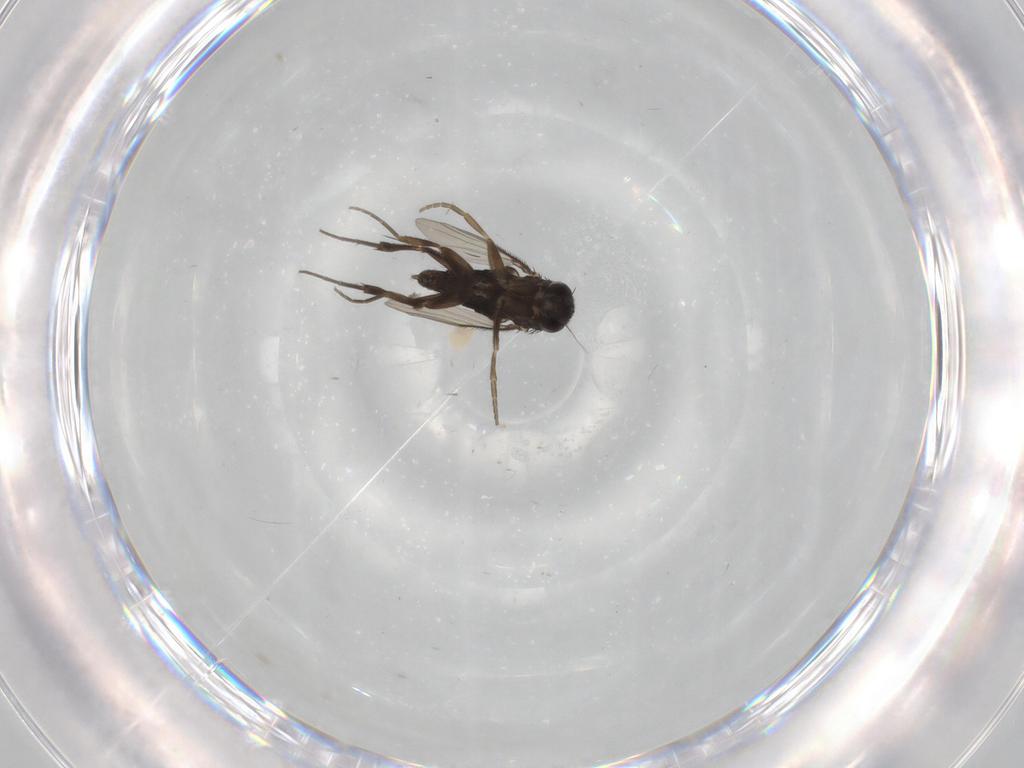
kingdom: Animalia
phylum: Arthropoda
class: Insecta
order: Diptera
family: Phoridae
